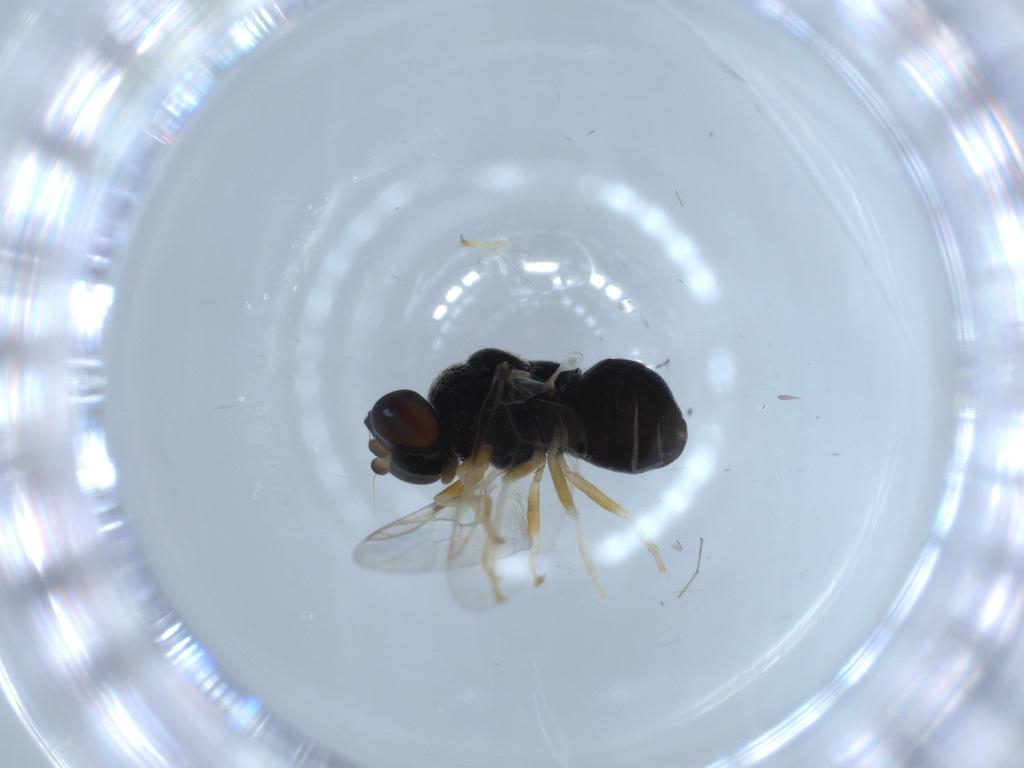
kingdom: Animalia
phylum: Arthropoda
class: Insecta
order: Diptera
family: Stratiomyidae
